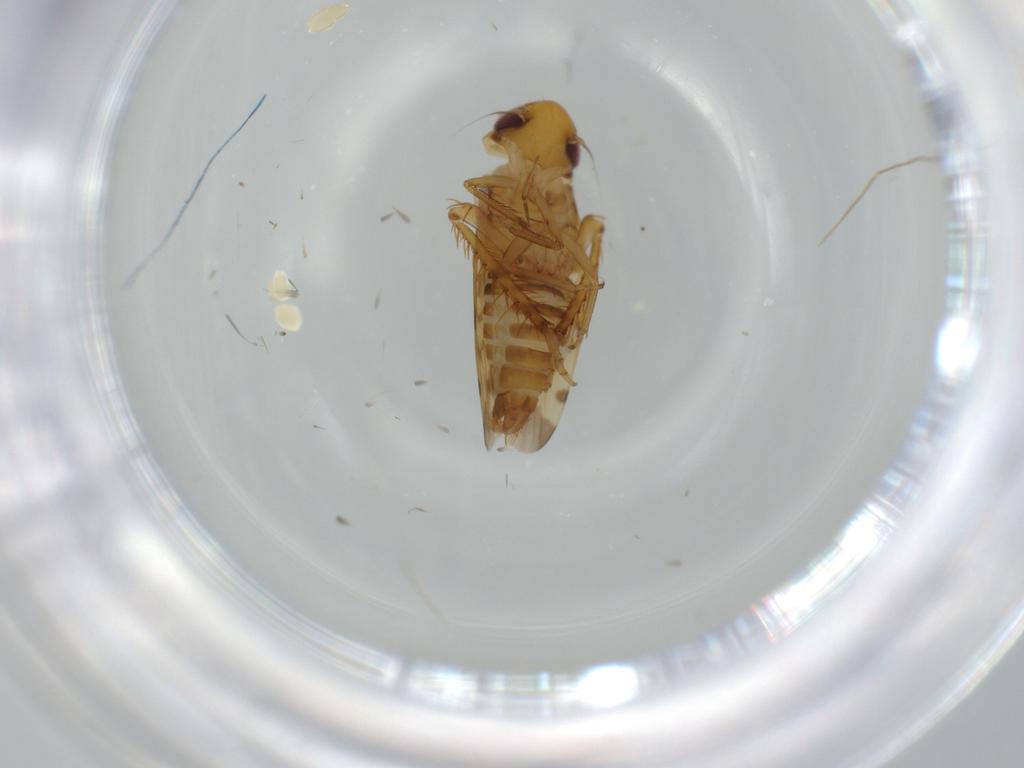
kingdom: Animalia
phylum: Arthropoda
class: Insecta
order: Hemiptera
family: Cicadellidae
